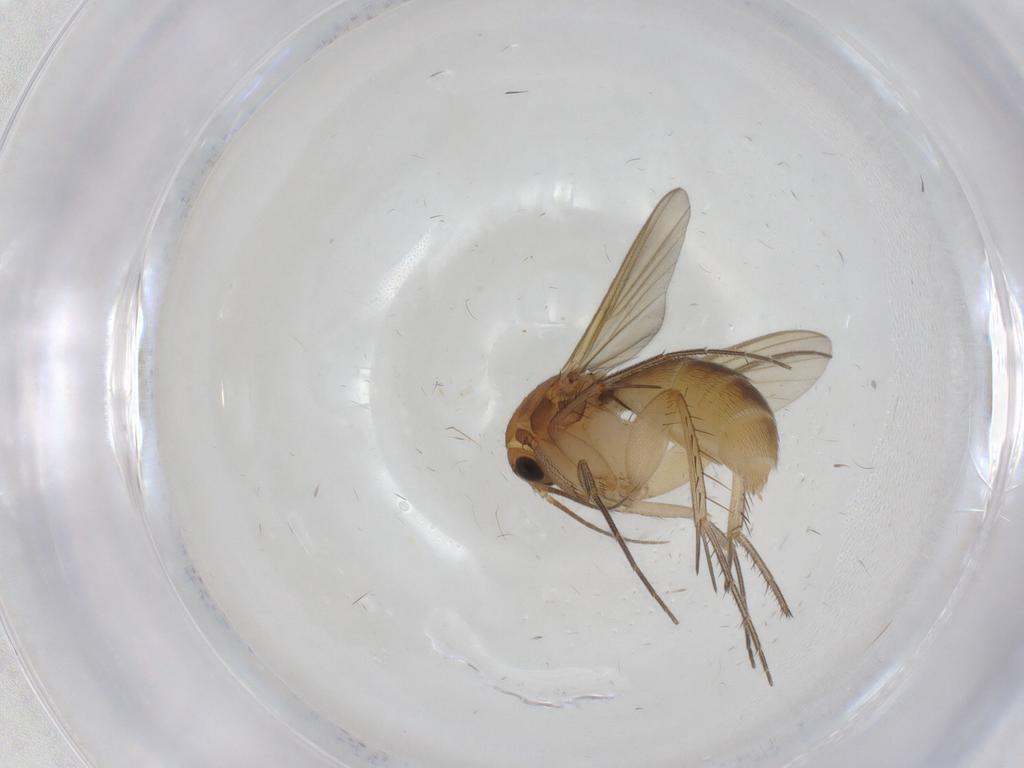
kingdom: Animalia
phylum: Arthropoda
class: Insecta
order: Diptera
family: Mycetophilidae
